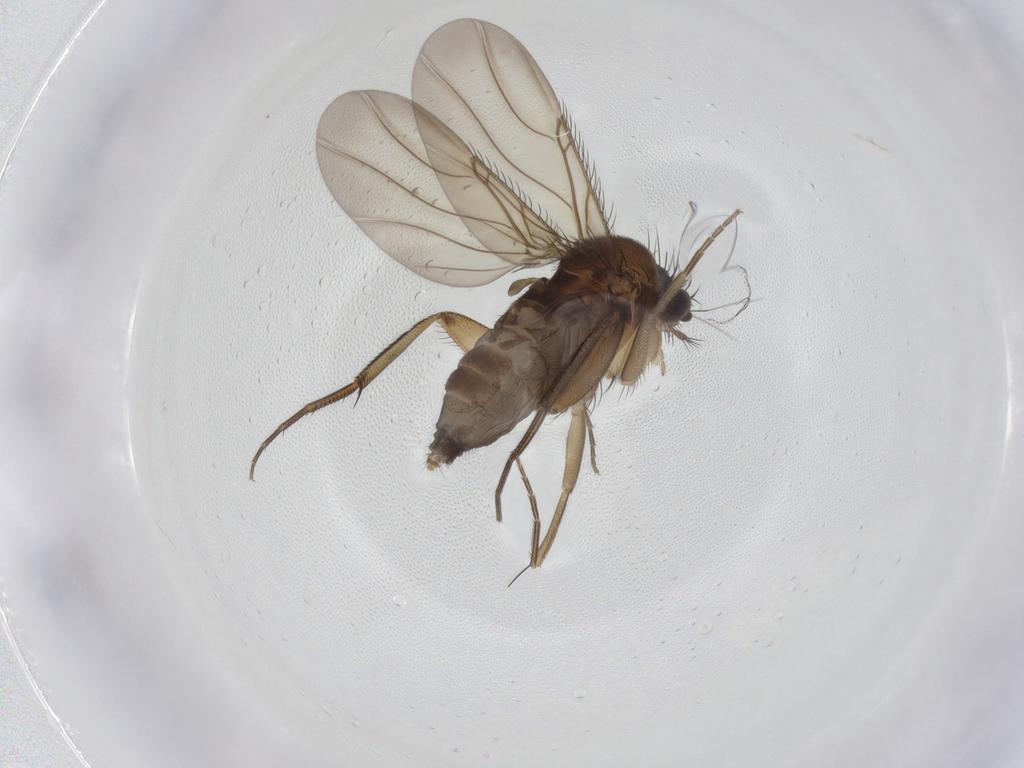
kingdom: Animalia
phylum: Arthropoda
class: Insecta
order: Diptera
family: Phoridae
